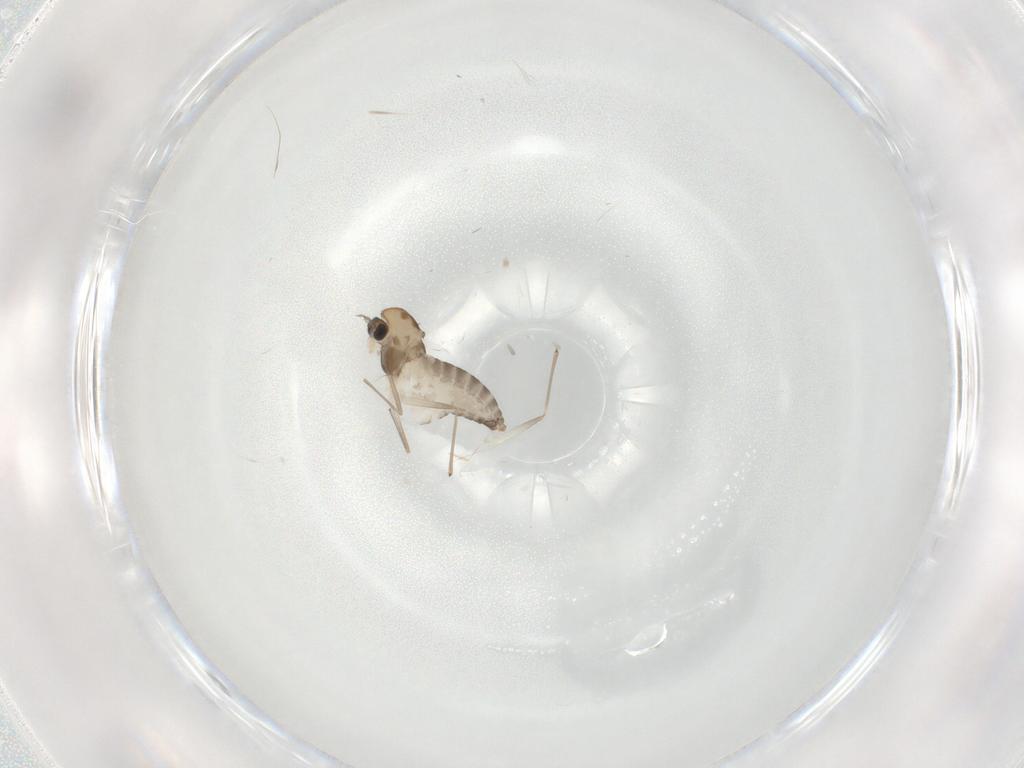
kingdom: Animalia
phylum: Arthropoda
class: Insecta
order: Diptera
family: Chironomidae
